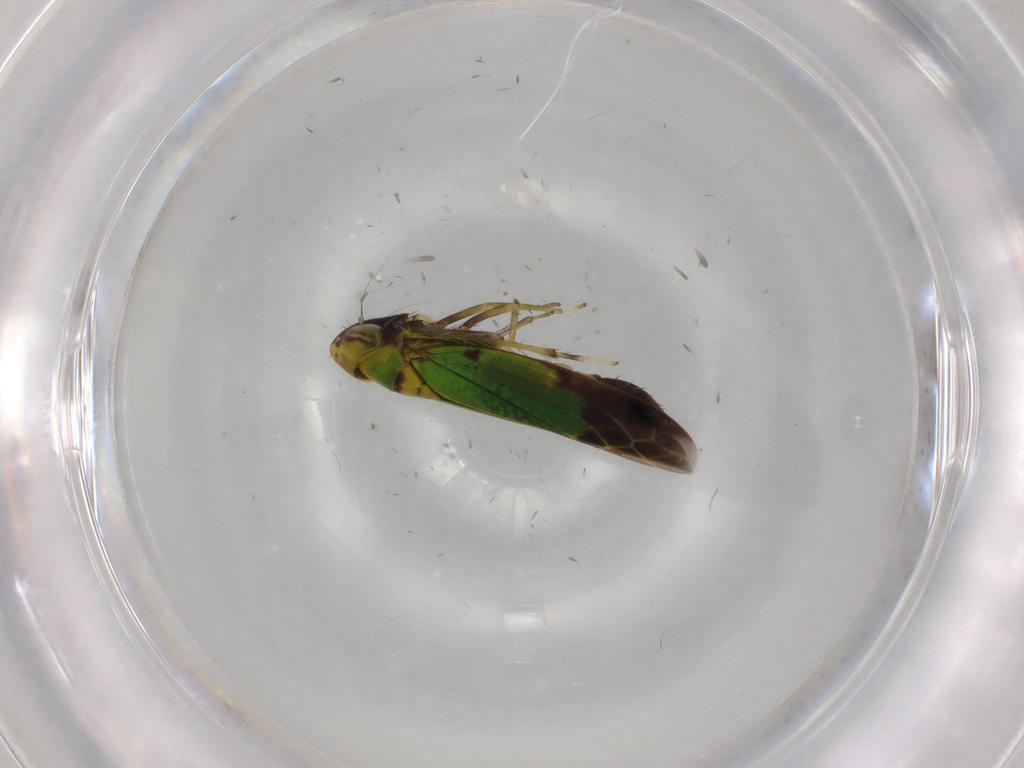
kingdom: Animalia
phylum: Arthropoda
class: Insecta
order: Hemiptera
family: Cicadellidae
